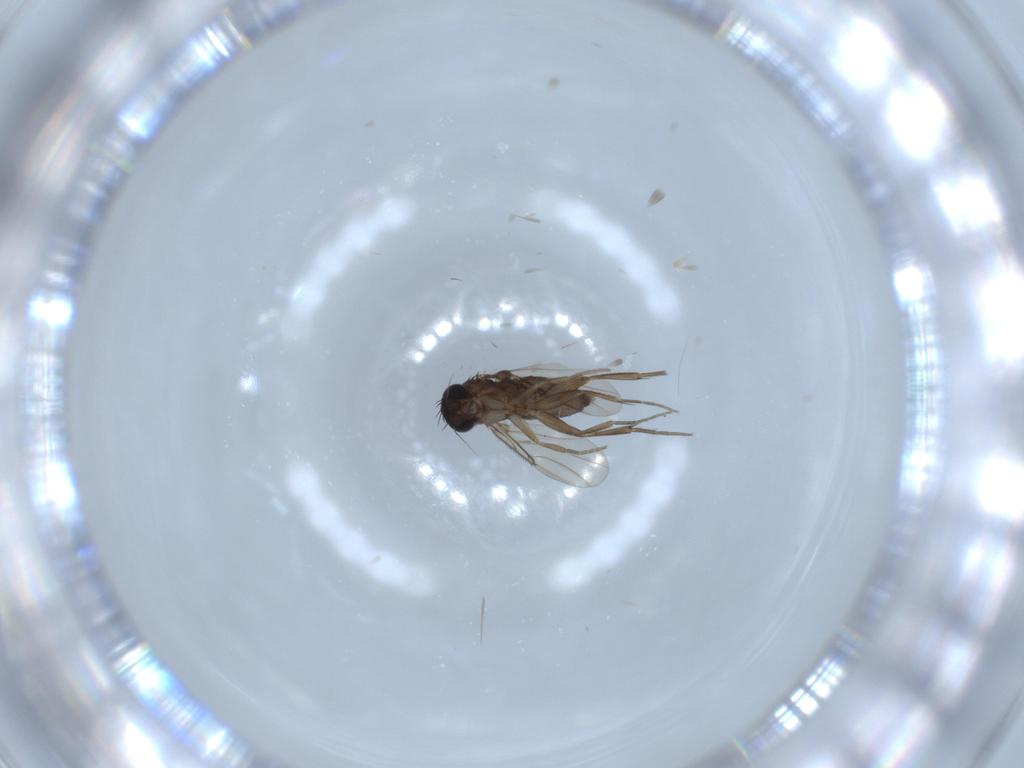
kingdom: Animalia
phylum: Arthropoda
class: Insecta
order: Diptera
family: Phoridae
